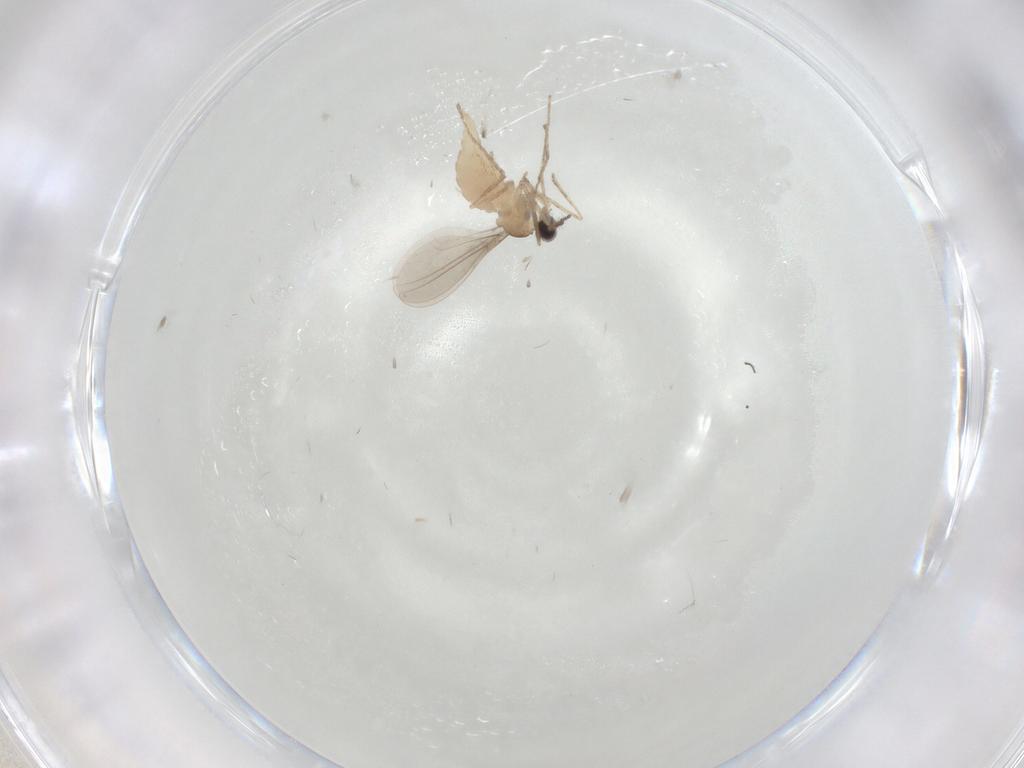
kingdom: Animalia
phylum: Arthropoda
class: Insecta
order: Diptera
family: Cecidomyiidae
